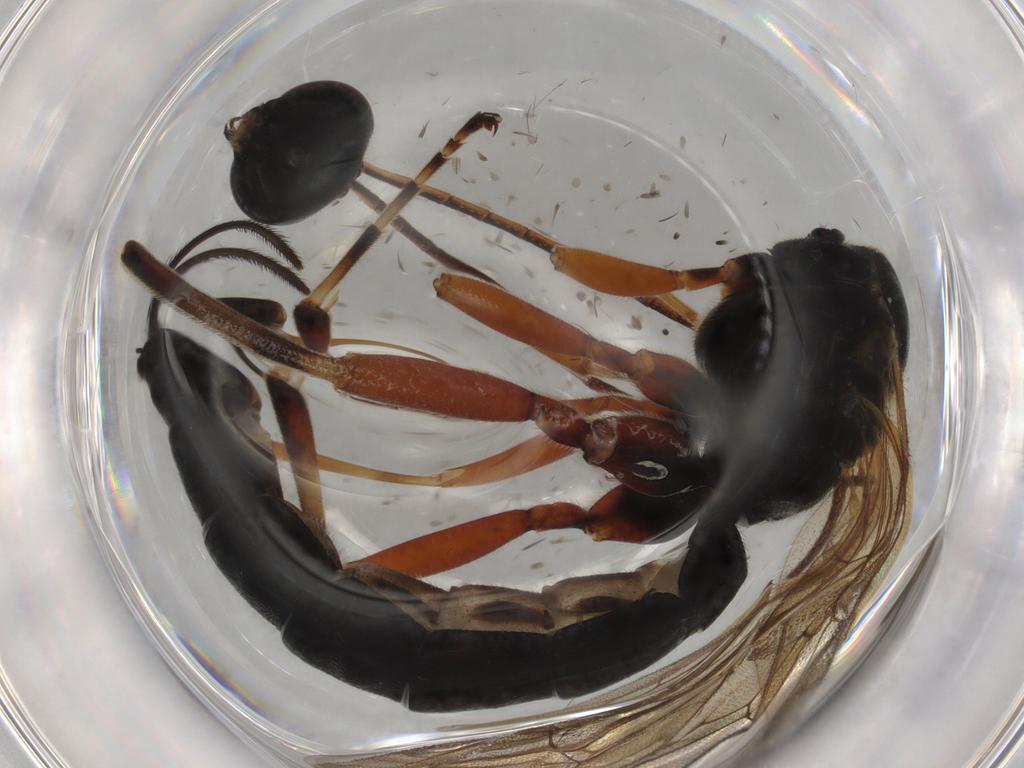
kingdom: Animalia
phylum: Arthropoda
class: Insecta
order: Hymenoptera
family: Ichneumonidae
